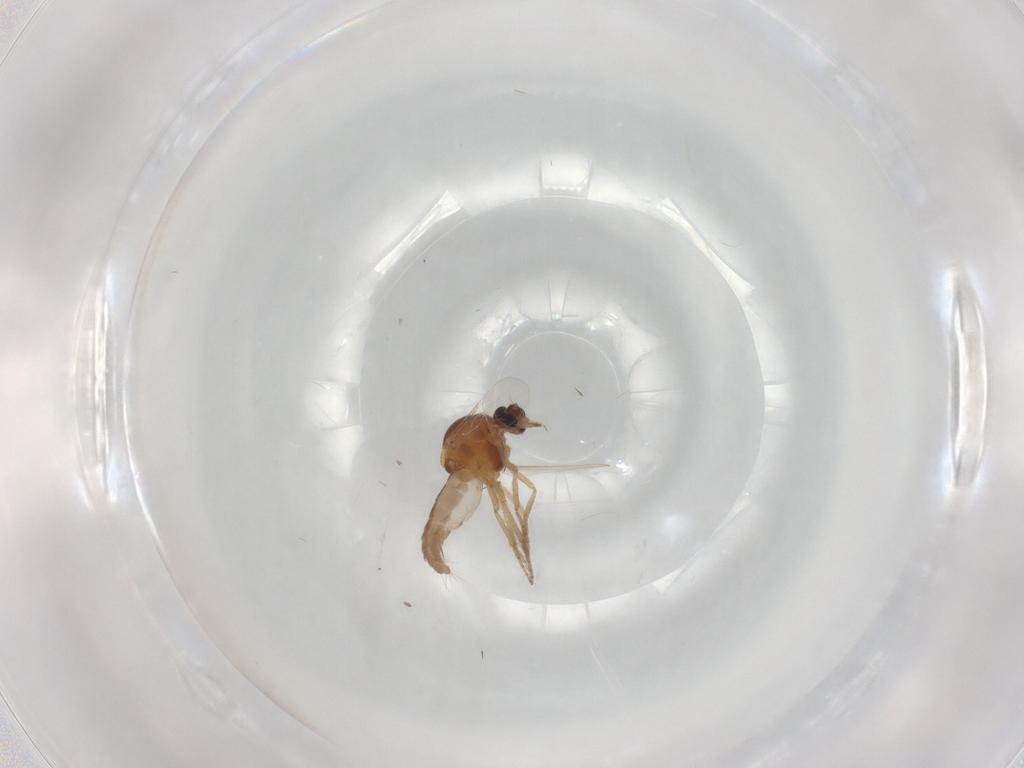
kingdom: Animalia
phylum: Arthropoda
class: Insecta
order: Diptera
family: Ceratopogonidae
